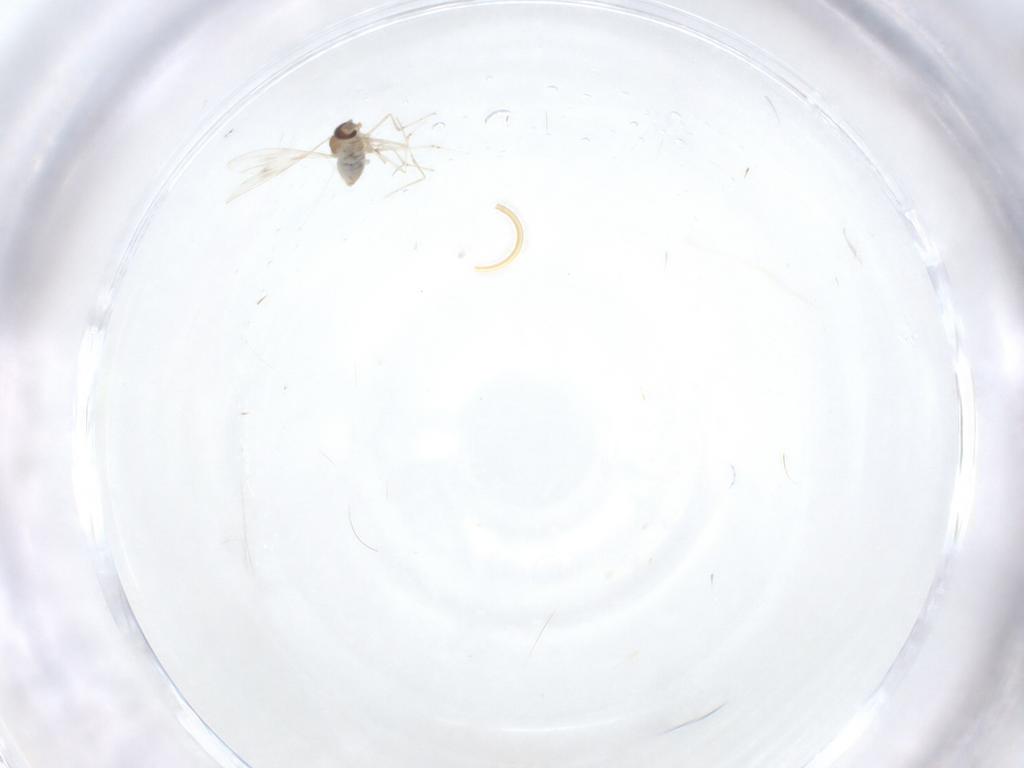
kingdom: Animalia
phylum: Arthropoda
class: Insecta
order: Diptera
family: Cecidomyiidae
